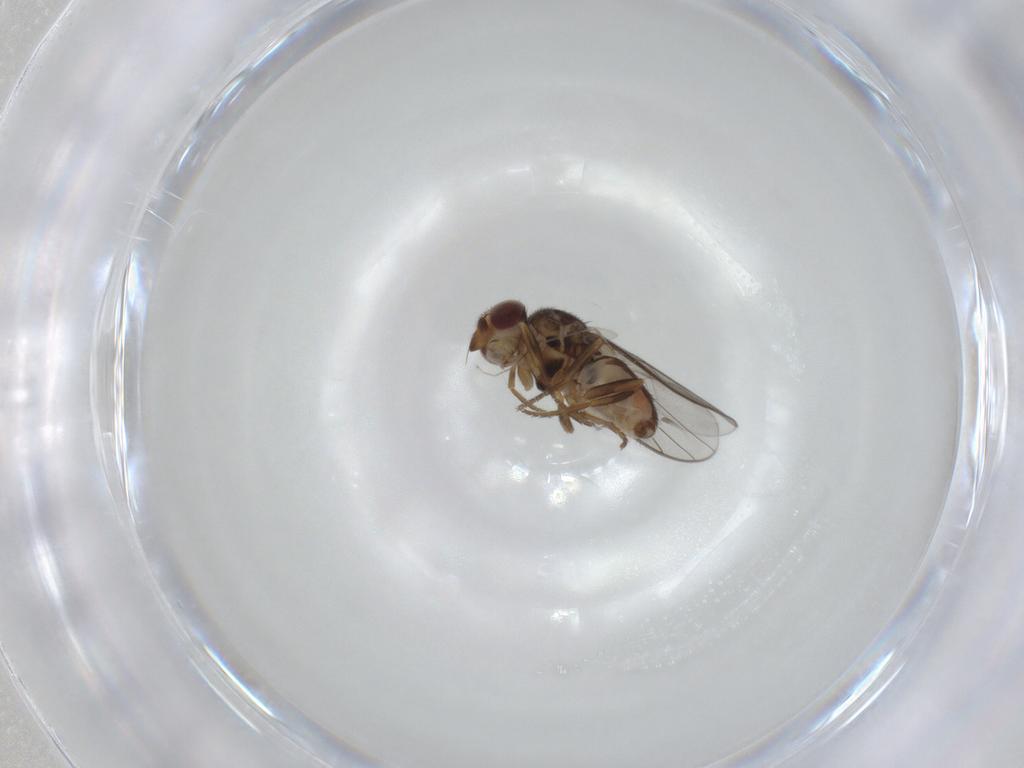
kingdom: Animalia
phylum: Arthropoda
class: Insecta
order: Diptera
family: Chloropidae
